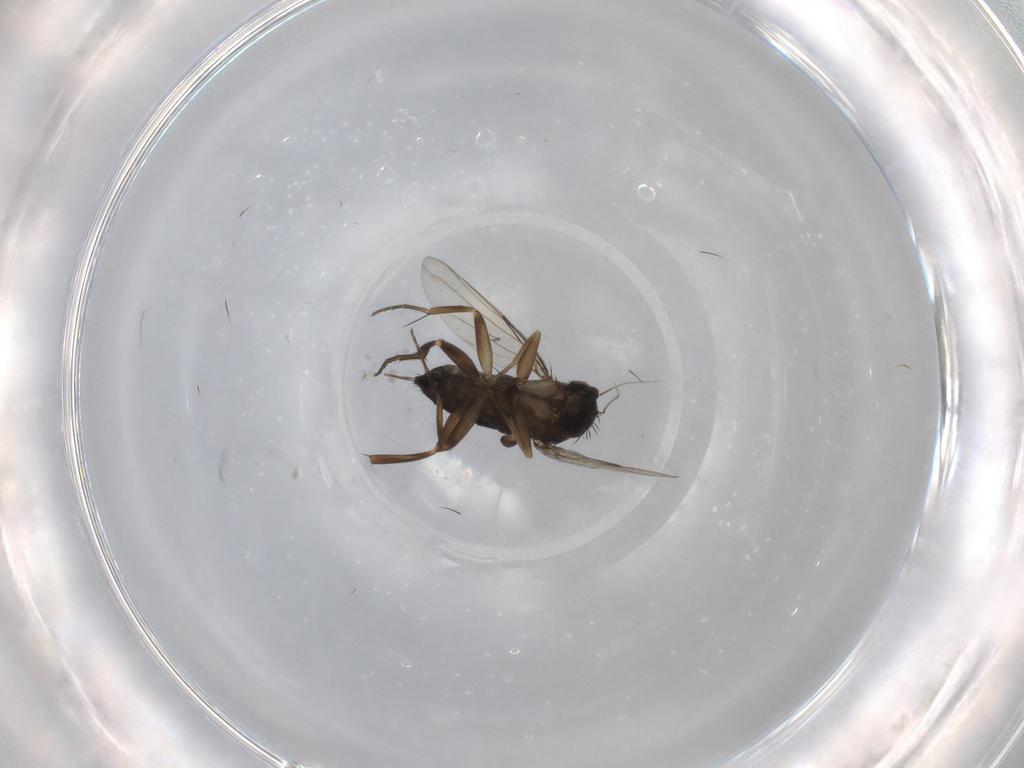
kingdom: Animalia
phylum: Arthropoda
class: Insecta
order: Diptera
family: Phoridae
